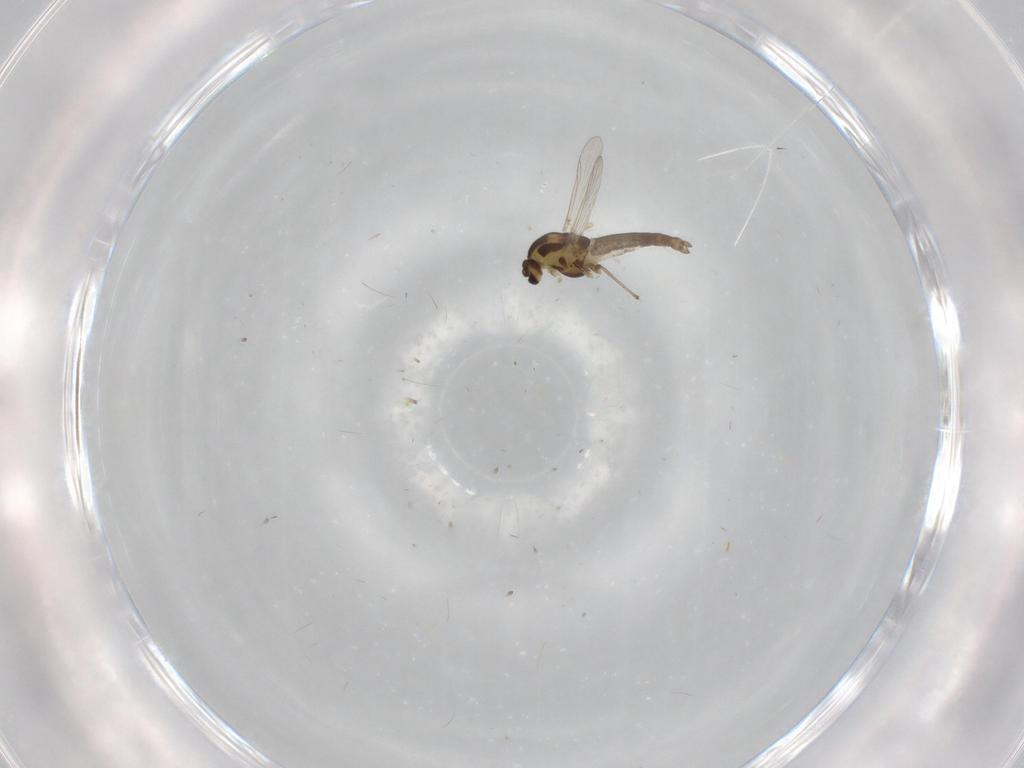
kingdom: Animalia
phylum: Arthropoda
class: Insecta
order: Diptera
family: Chironomidae
